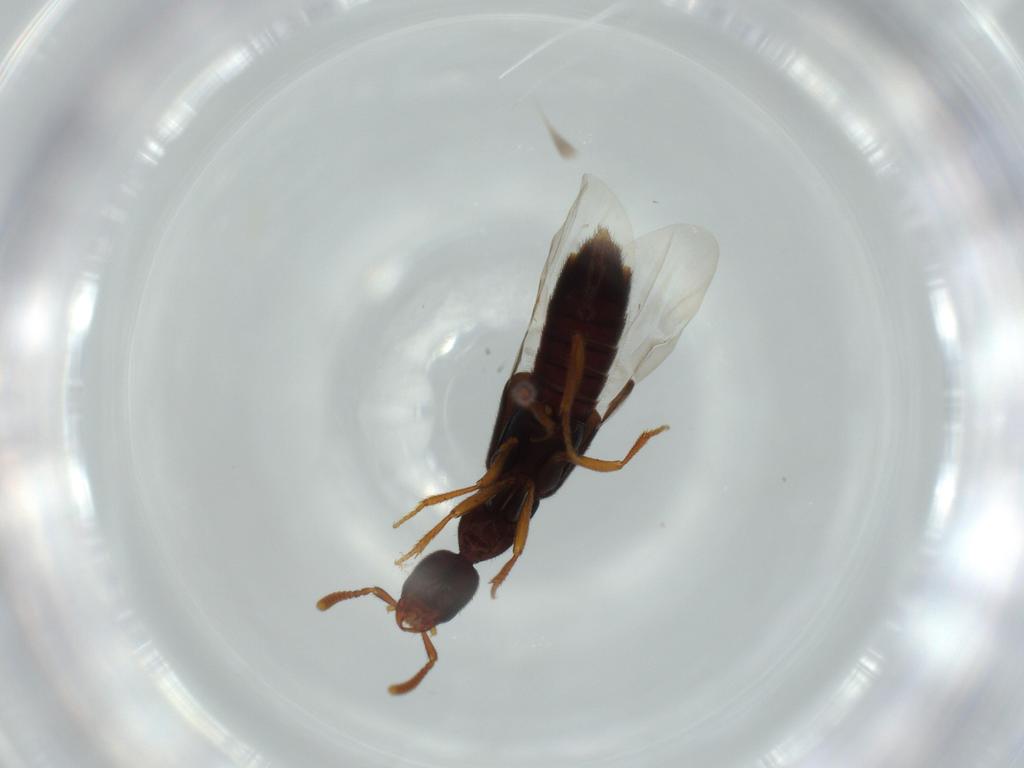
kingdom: Animalia
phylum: Arthropoda
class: Insecta
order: Coleoptera
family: Staphylinidae
